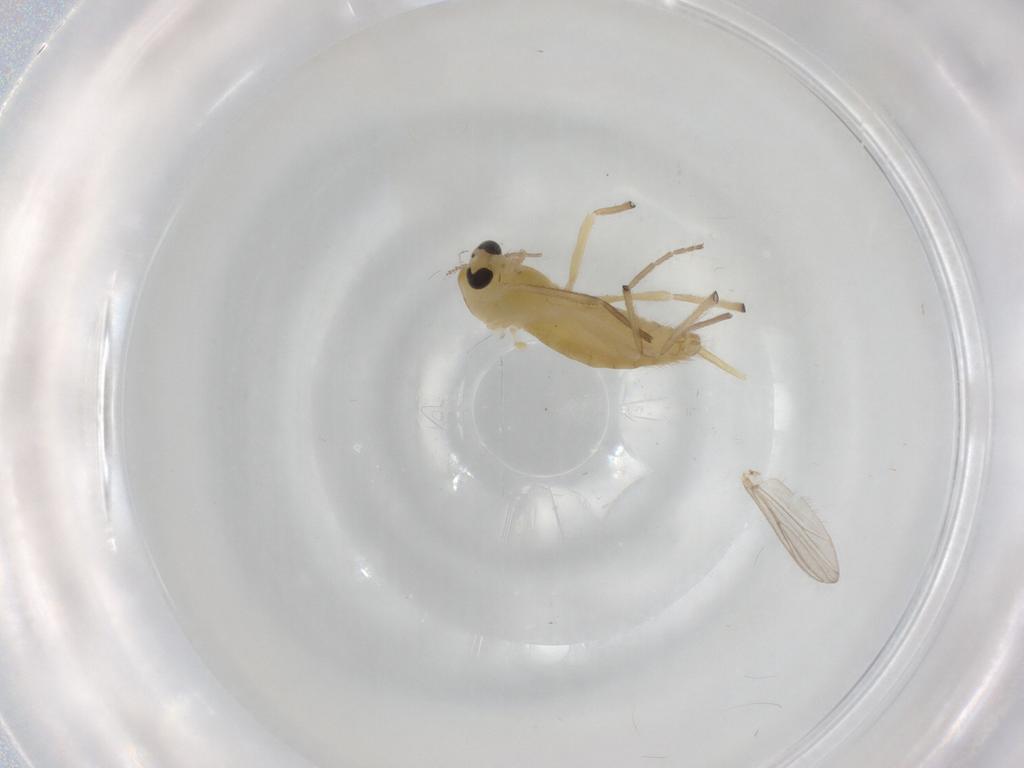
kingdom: Animalia
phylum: Arthropoda
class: Insecta
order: Diptera
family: Chironomidae
